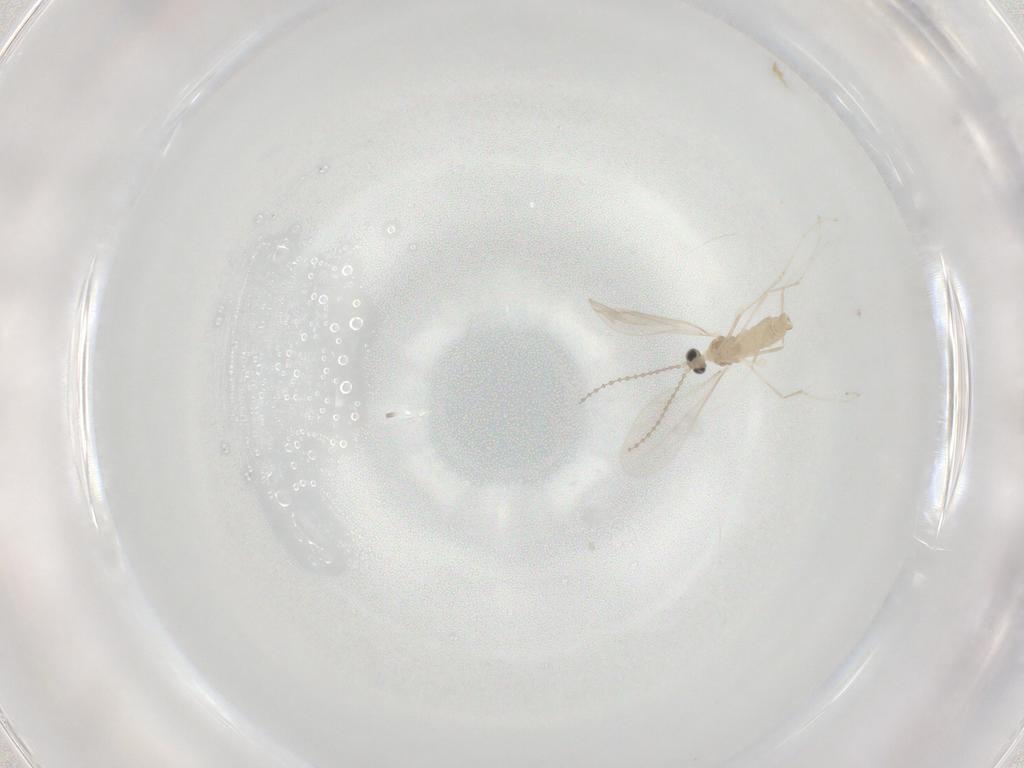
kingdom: Animalia
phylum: Arthropoda
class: Insecta
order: Diptera
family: Cecidomyiidae
